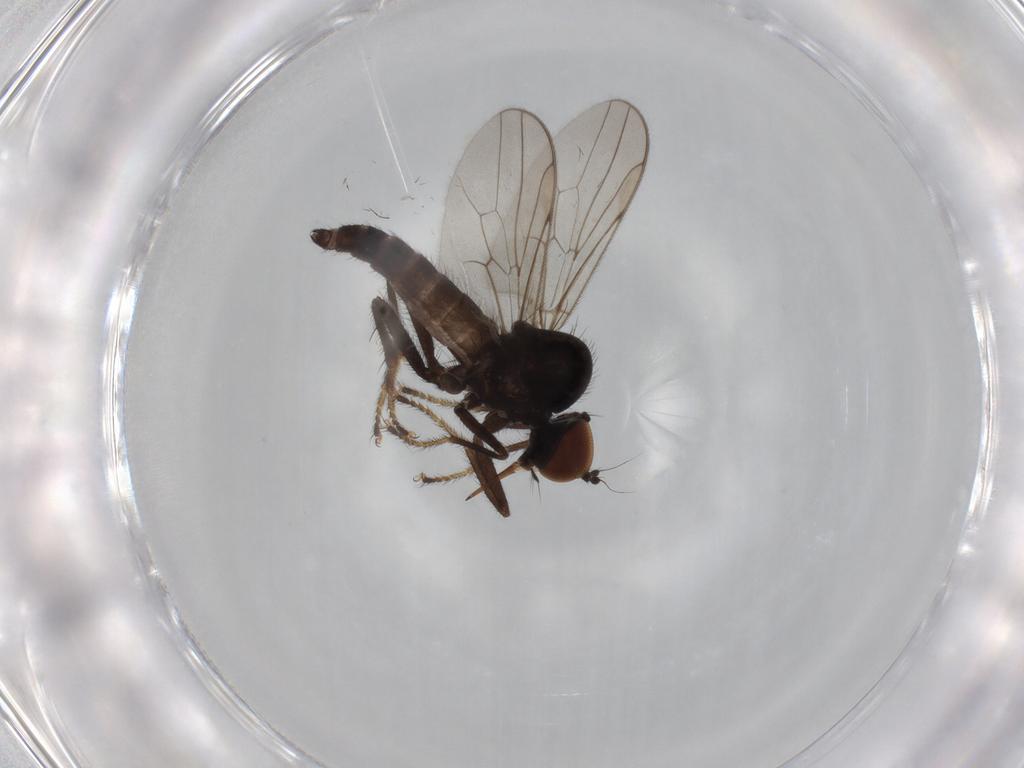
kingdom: Animalia
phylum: Arthropoda
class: Insecta
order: Diptera
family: Hybotidae
